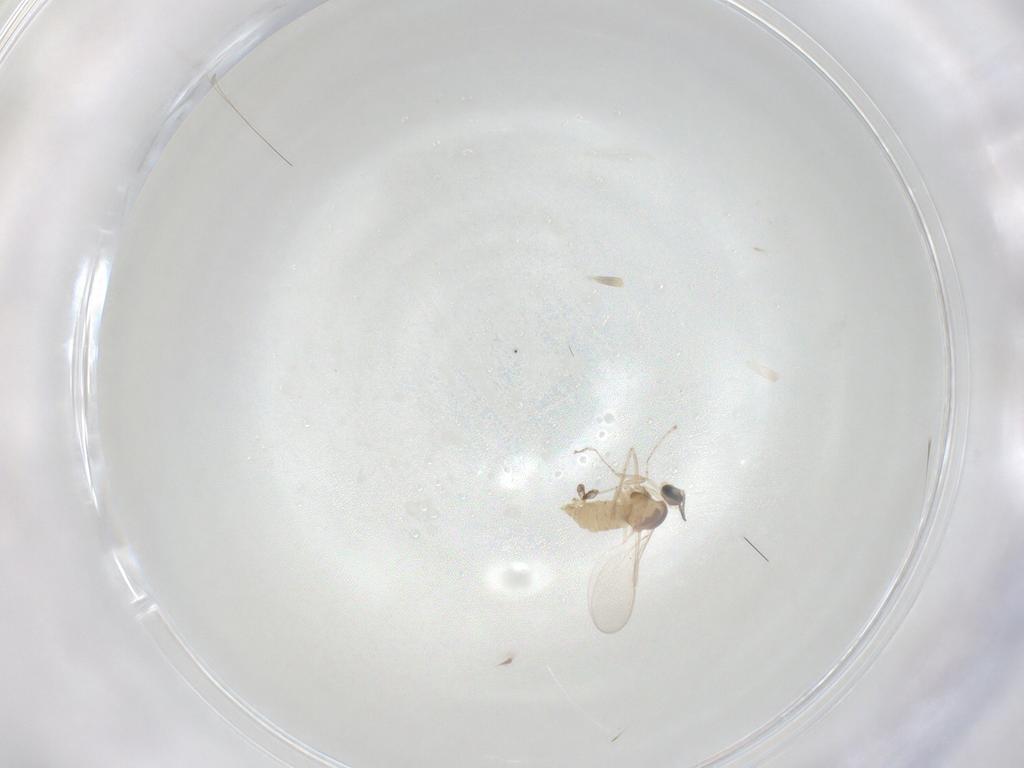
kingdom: Animalia
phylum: Arthropoda
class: Insecta
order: Diptera
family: Cecidomyiidae
